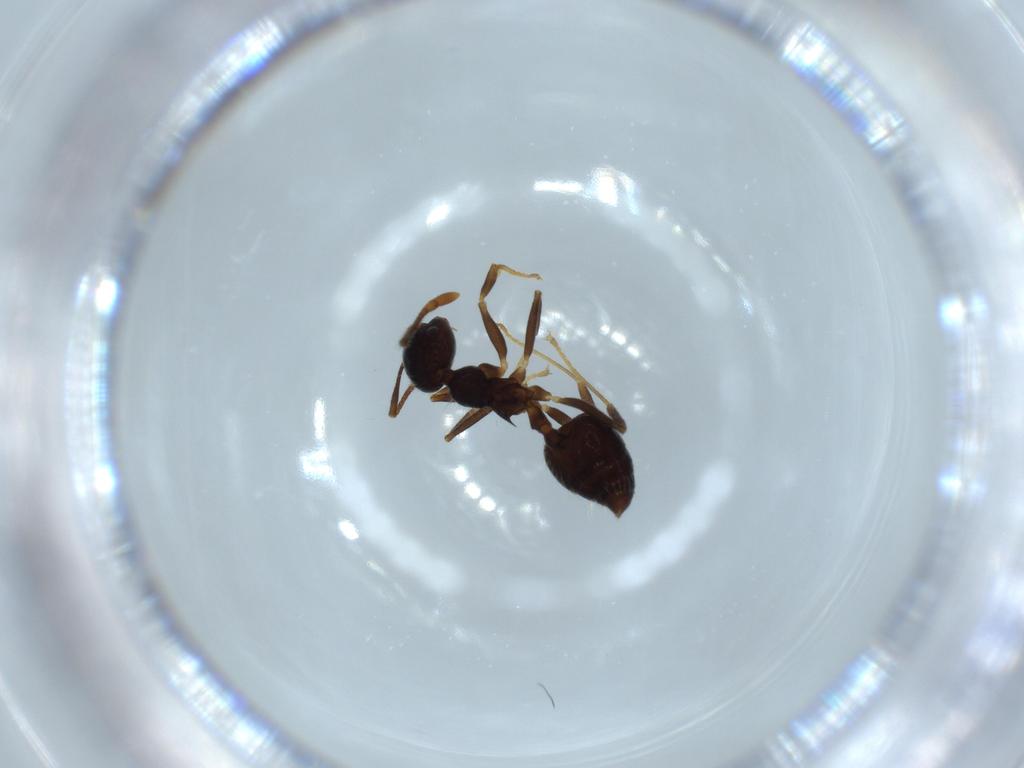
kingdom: Animalia
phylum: Arthropoda
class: Insecta
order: Hymenoptera
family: Formicidae
